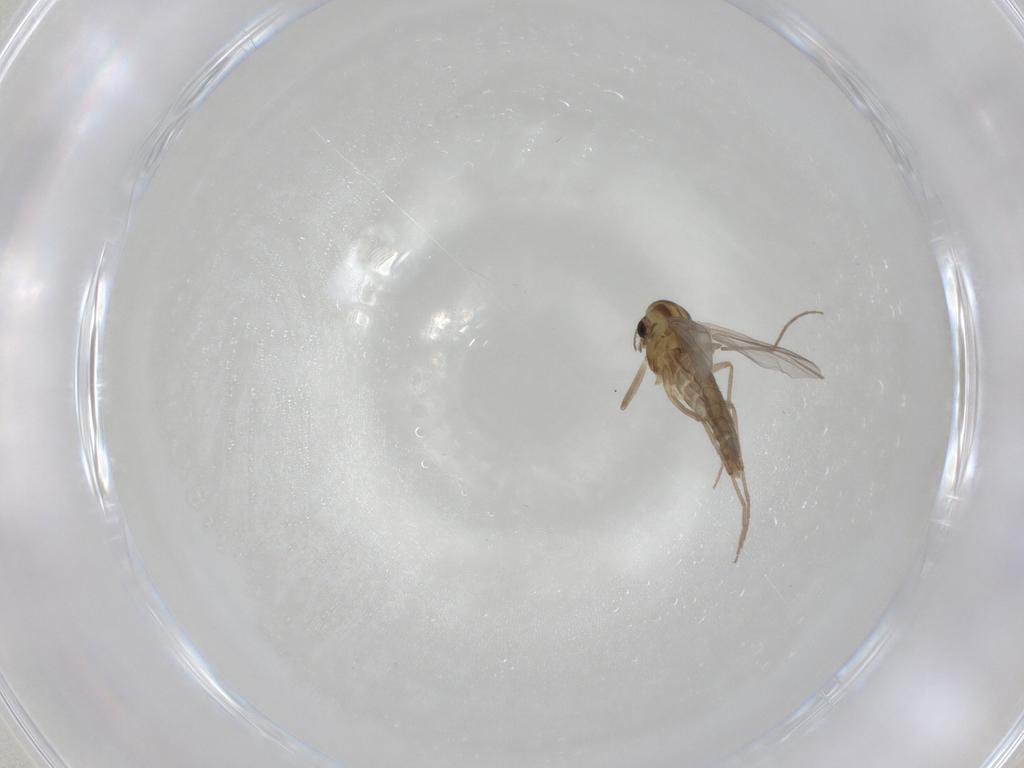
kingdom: Animalia
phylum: Arthropoda
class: Insecta
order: Diptera
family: Chironomidae
